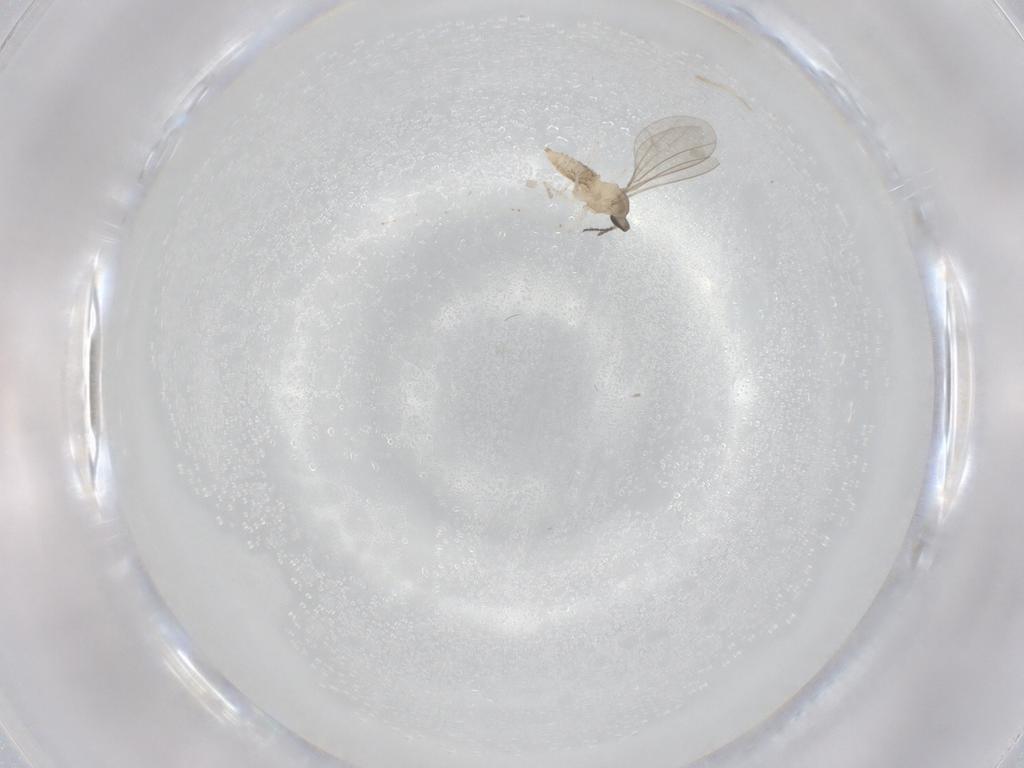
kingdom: Animalia
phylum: Arthropoda
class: Insecta
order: Diptera
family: Cecidomyiidae
